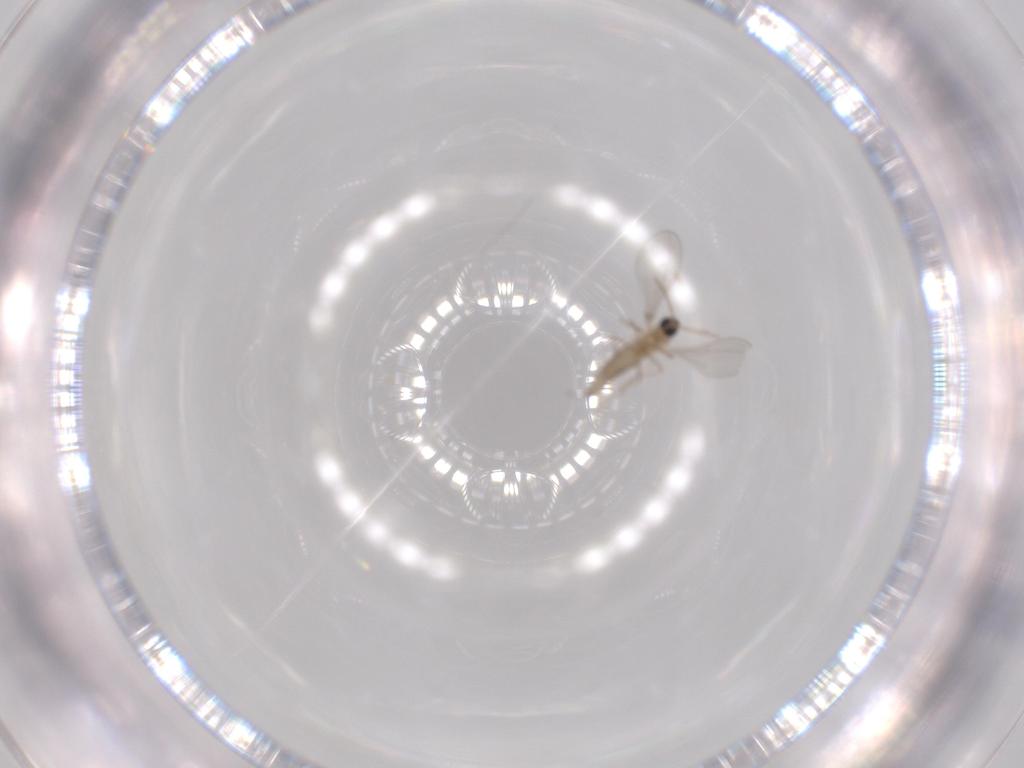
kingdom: Animalia
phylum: Arthropoda
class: Insecta
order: Diptera
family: Cecidomyiidae
